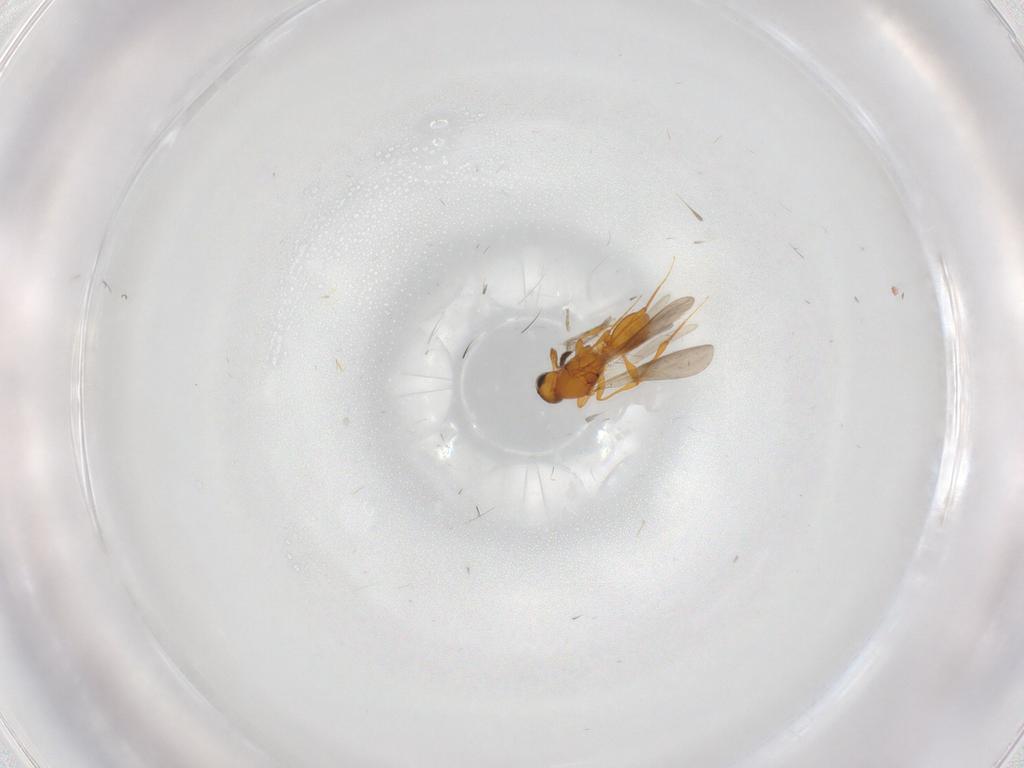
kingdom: Animalia
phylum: Arthropoda
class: Insecta
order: Hymenoptera
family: Platygastridae
